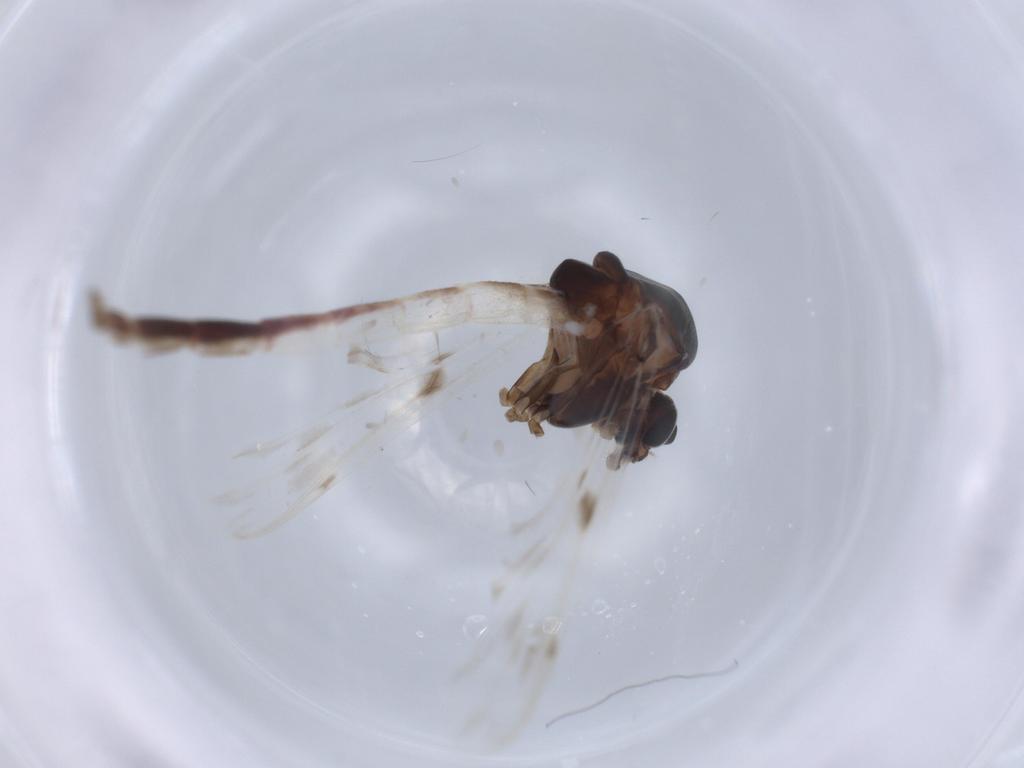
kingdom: Animalia
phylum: Arthropoda
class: Insecta
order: Diptera
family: Chironomidae
